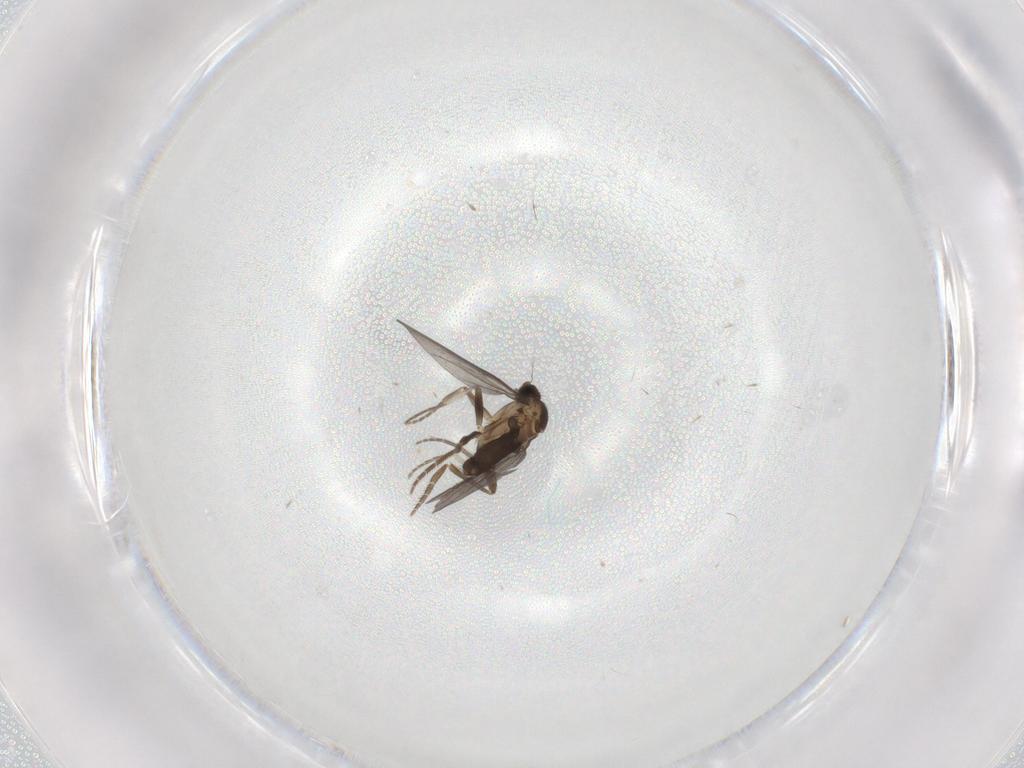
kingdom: Animalia
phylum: Arthropoda
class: Insecta
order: Diptera
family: Phoridae
